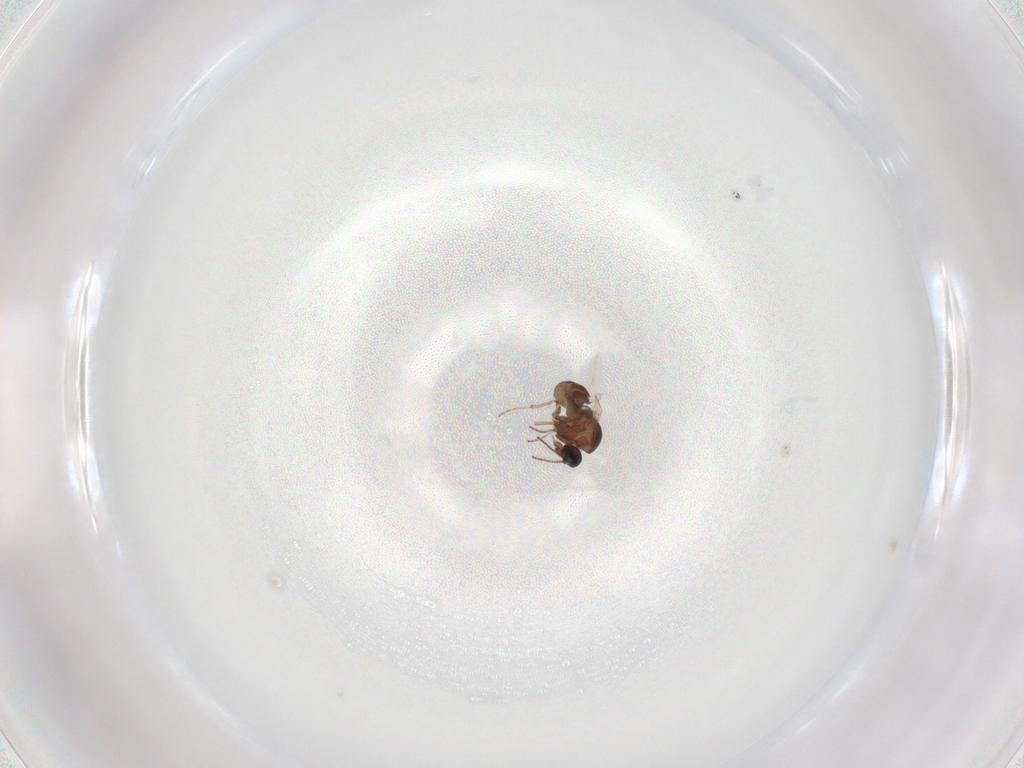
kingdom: Animalia
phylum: Arthropoda
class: Insecta
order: Diptera
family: Ceratopogonidae
